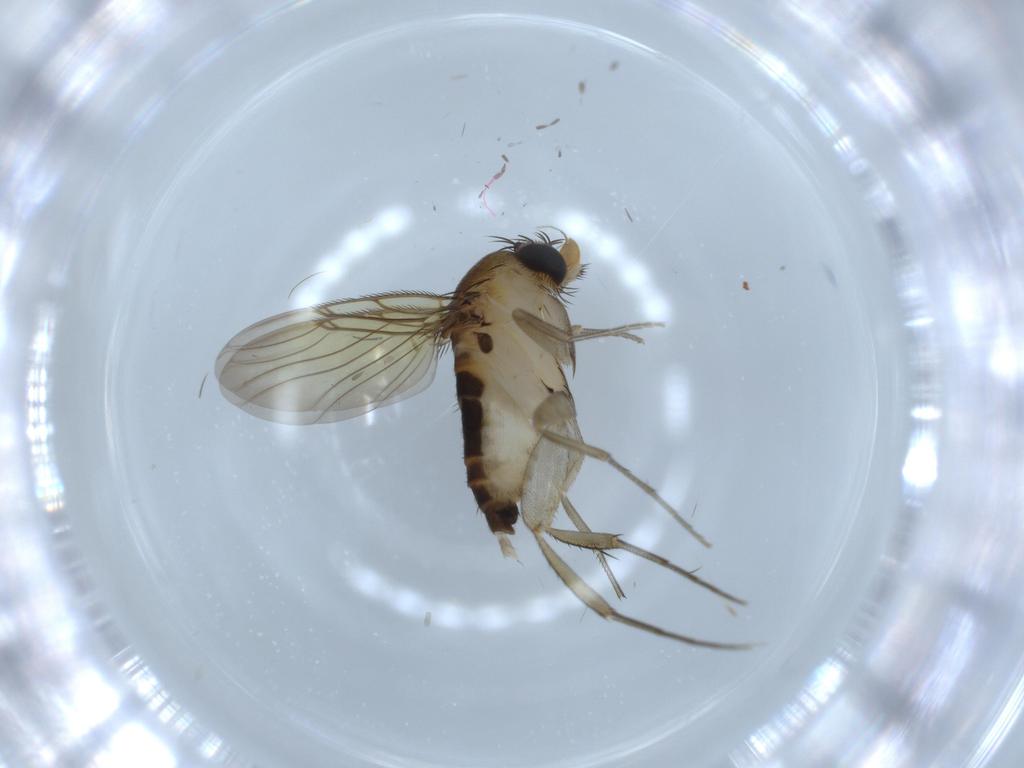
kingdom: Animalia
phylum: Arthropoda
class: Insecta
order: Diptera
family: Phoridae
